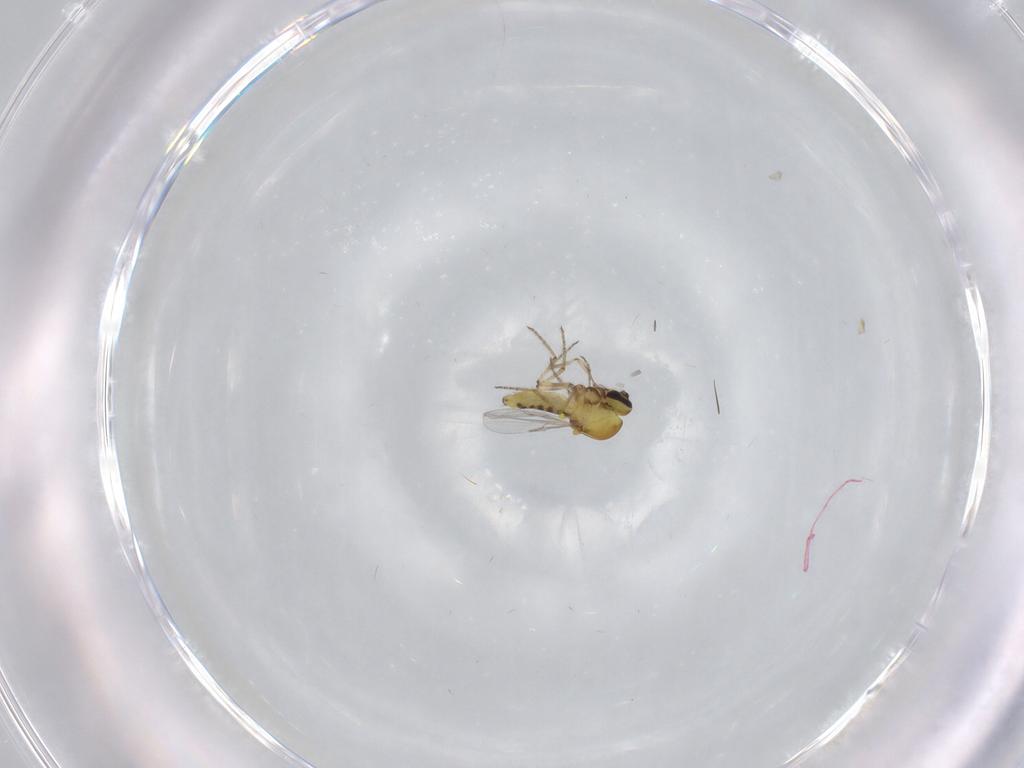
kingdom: Animalia
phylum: Arthropoda
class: Insecta
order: Diptera
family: Ceratopogonidae
